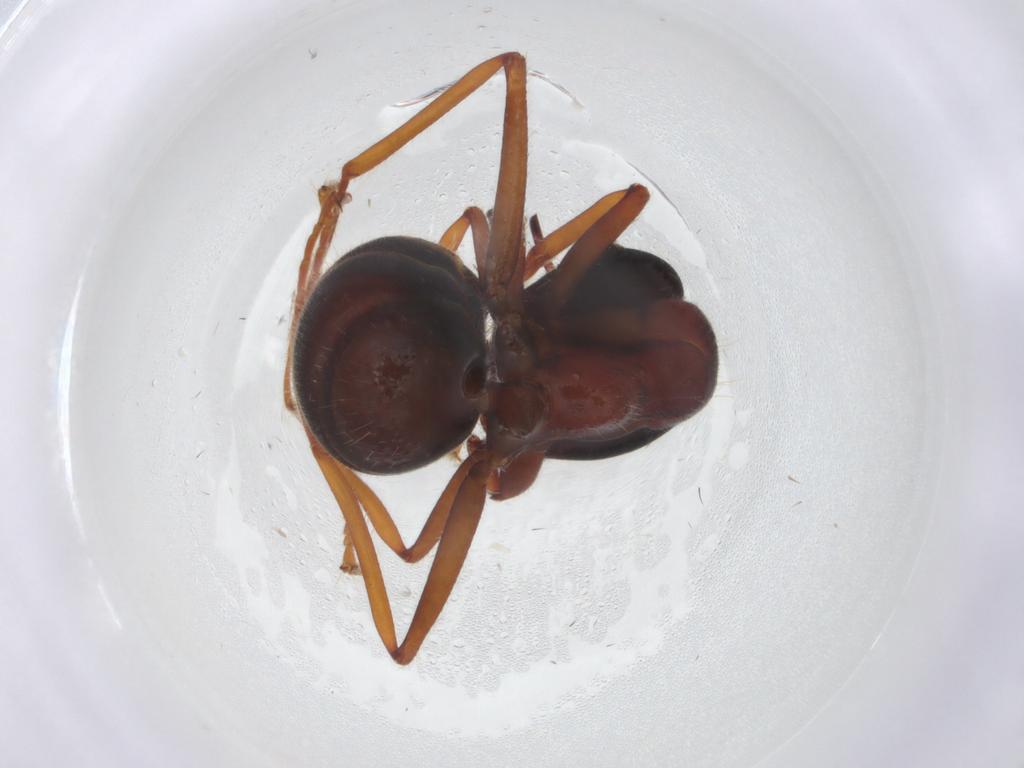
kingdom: Animalia
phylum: Arthropoda
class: Insecta
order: Hymenoptera
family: Formicidae
